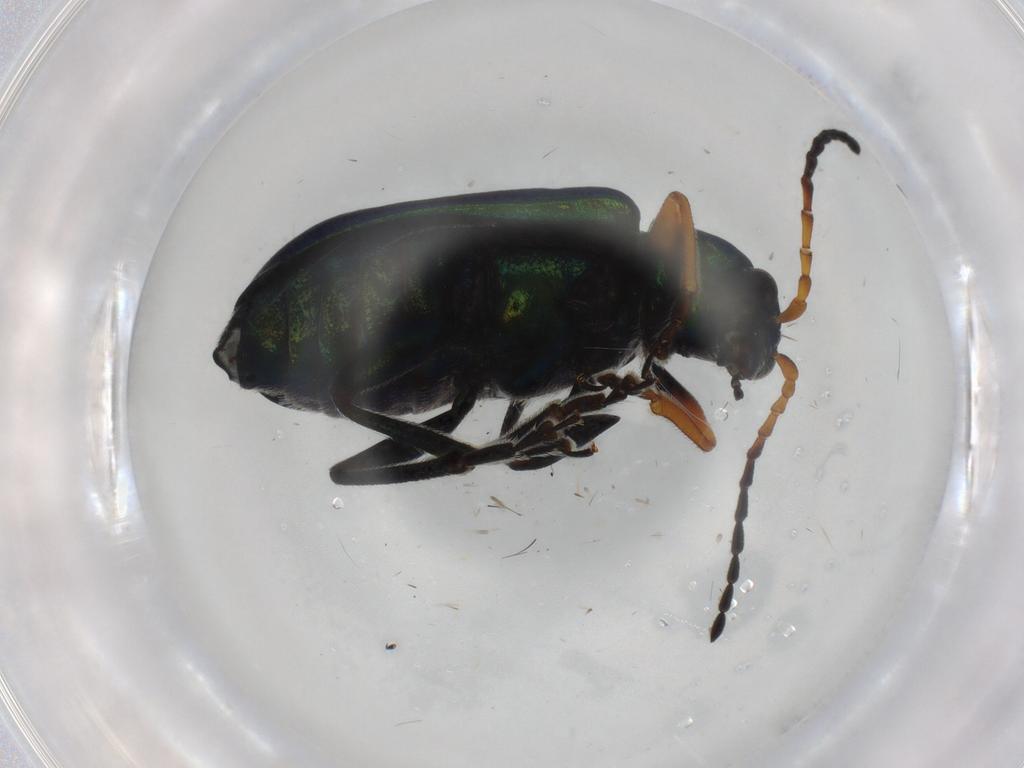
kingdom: Animalia
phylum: Arthropoda
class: Insecta
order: Coleoptera
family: Chrysomelidae
